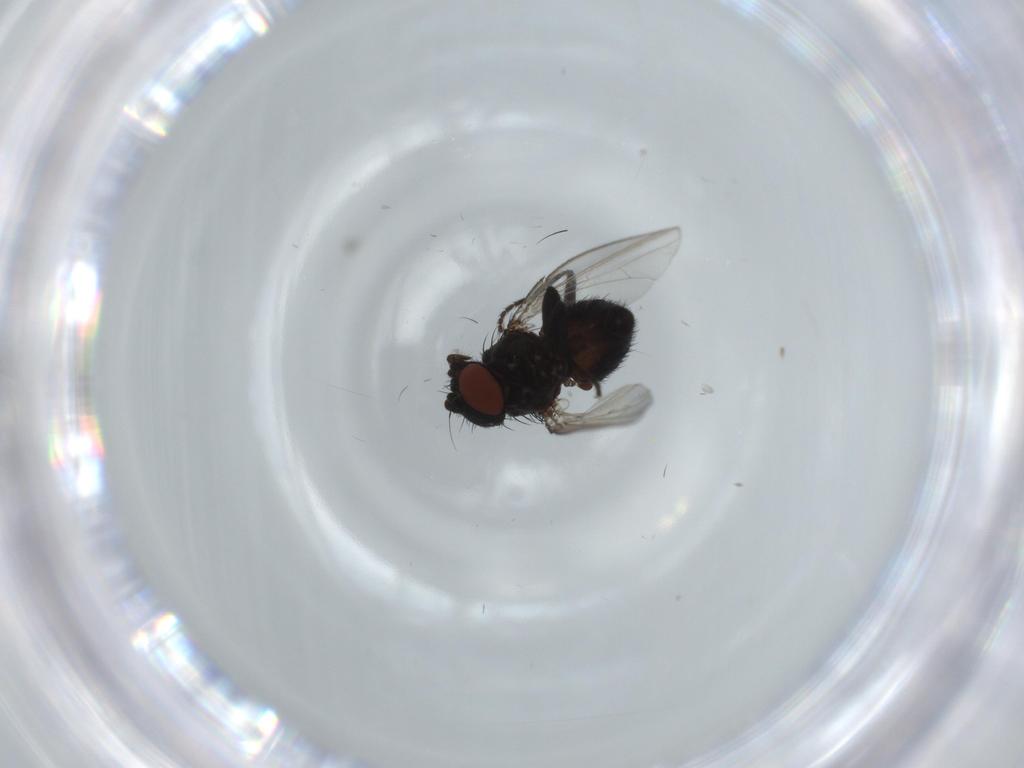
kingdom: Animalia
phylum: Arthropoda
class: Insecta
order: Diptera
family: Milichiidae
